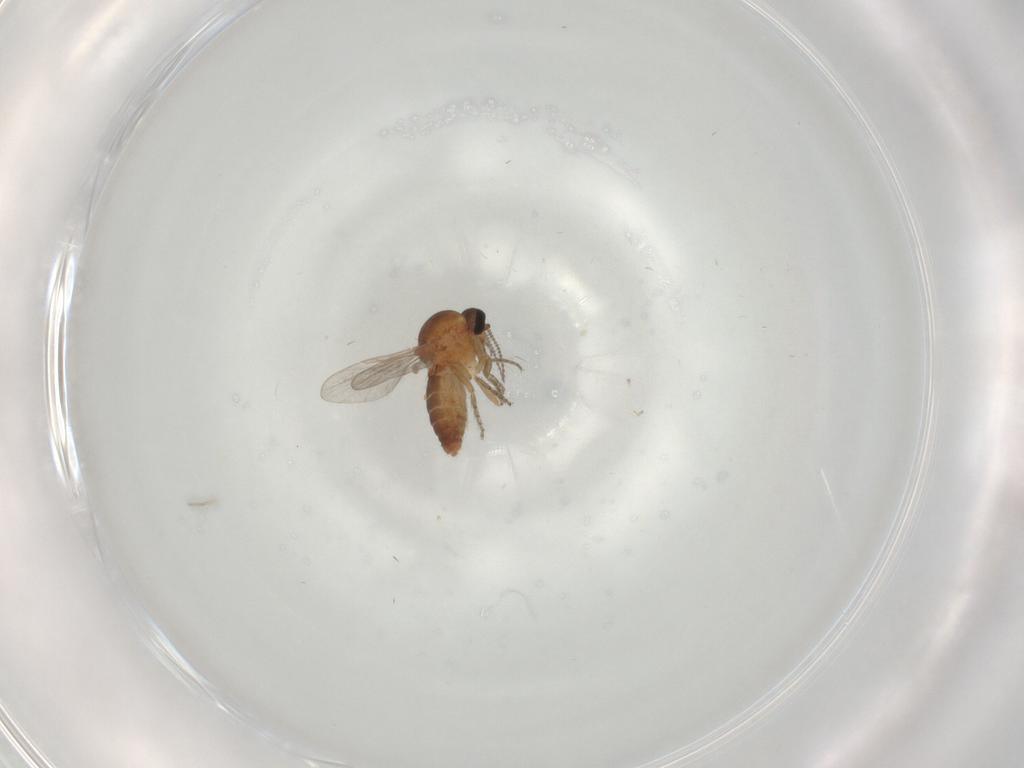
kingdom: Animalia
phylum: Arthropoda
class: Insecta
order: Diptera
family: Ceratopogonidae
